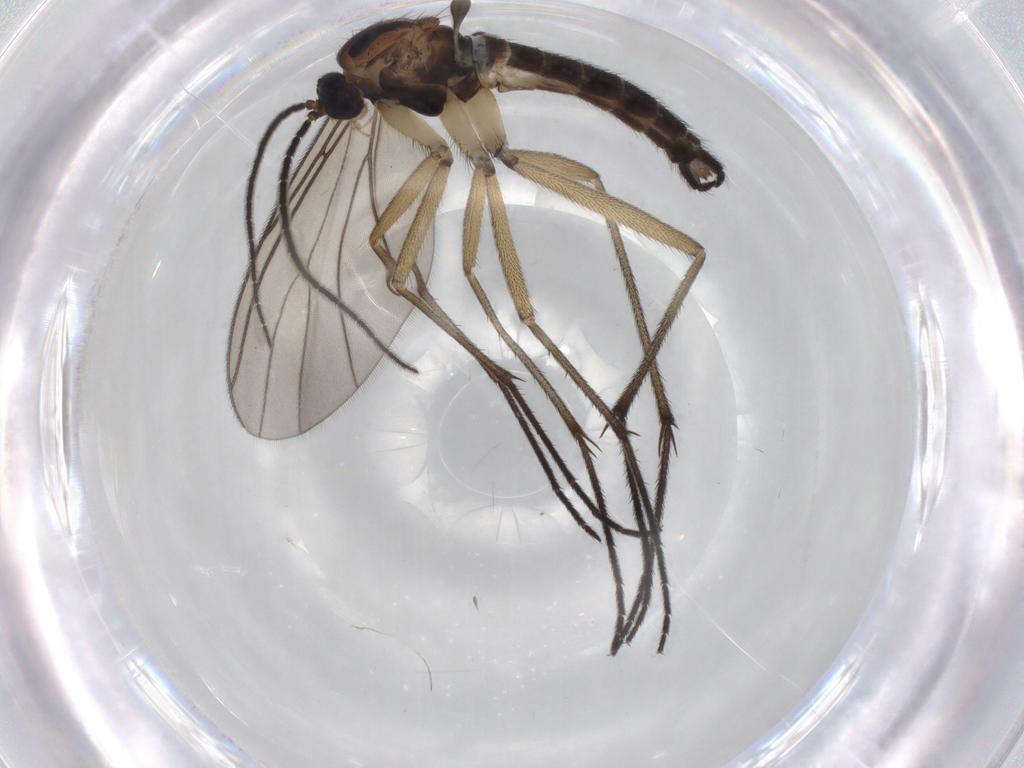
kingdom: Animalia
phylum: Arthropoda
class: Insecta
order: Diptera
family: Sciaridae
